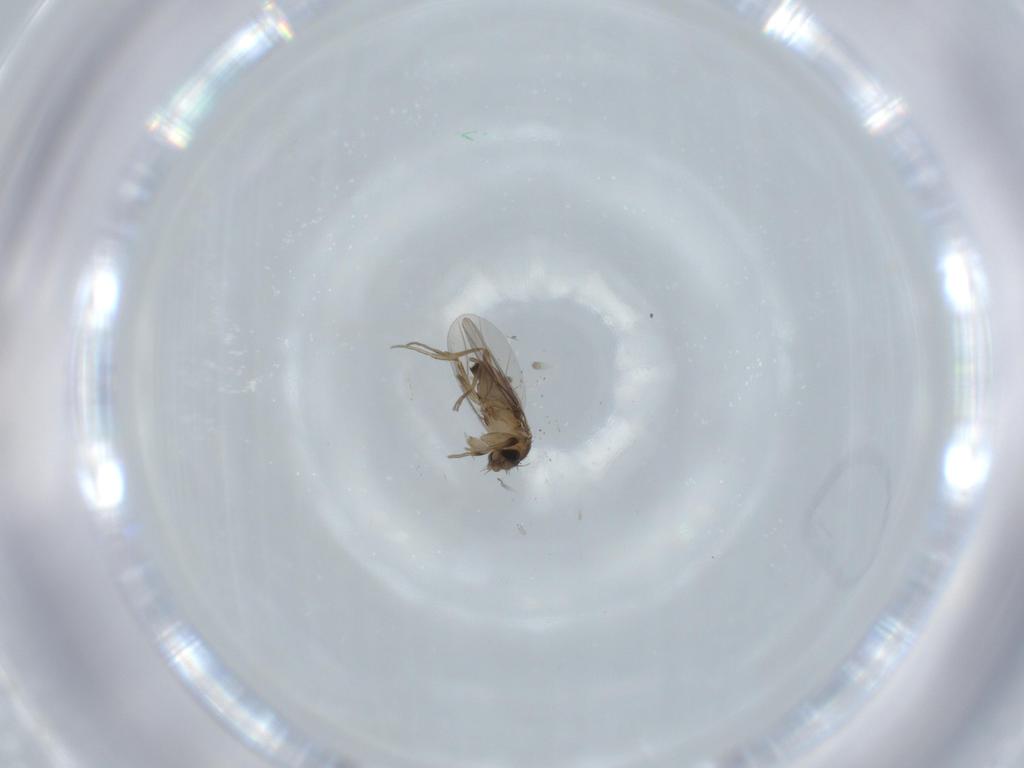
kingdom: Animalia
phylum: Arthropoda
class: Insecta
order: Diptera
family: Phoridae
